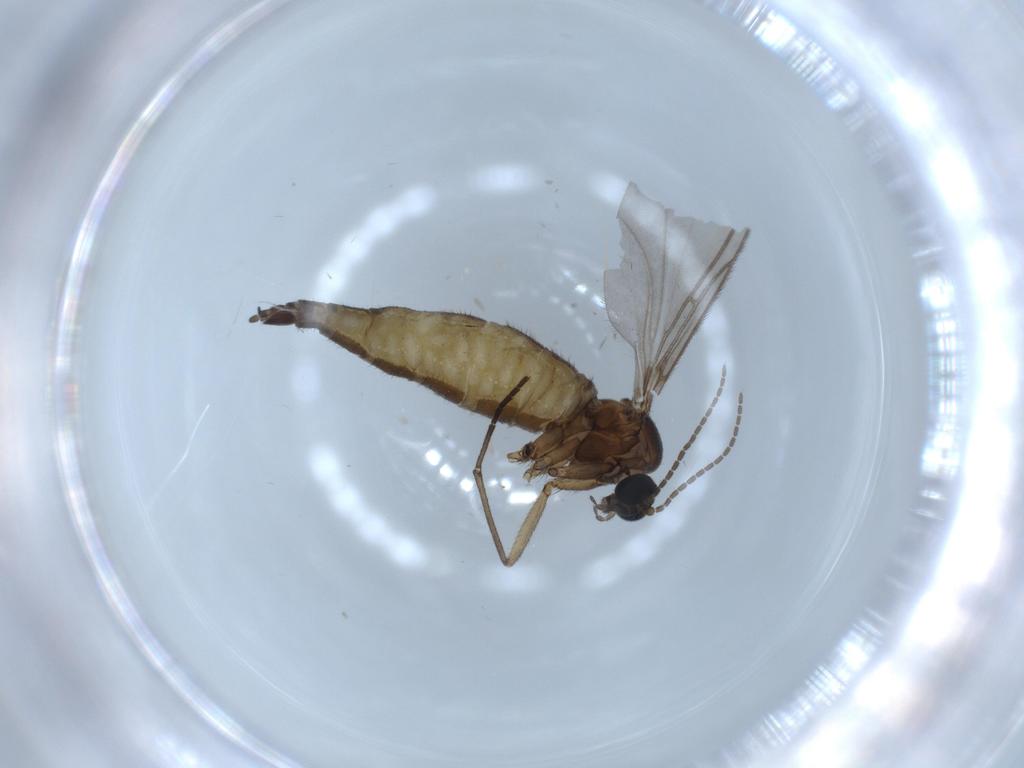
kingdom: Animalia
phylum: Arthropoda
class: Insecta
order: Diptera
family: Sciaridae
